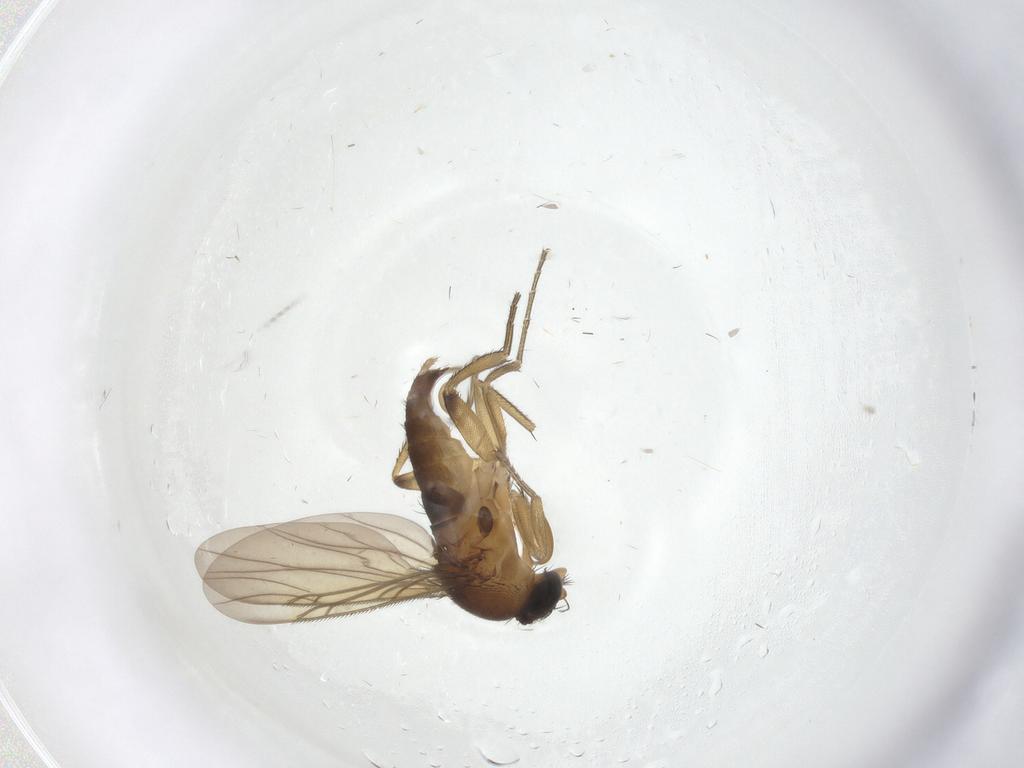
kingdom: Animalia
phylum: Arthropoda
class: Insecta
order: Diptera
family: Phoridae
